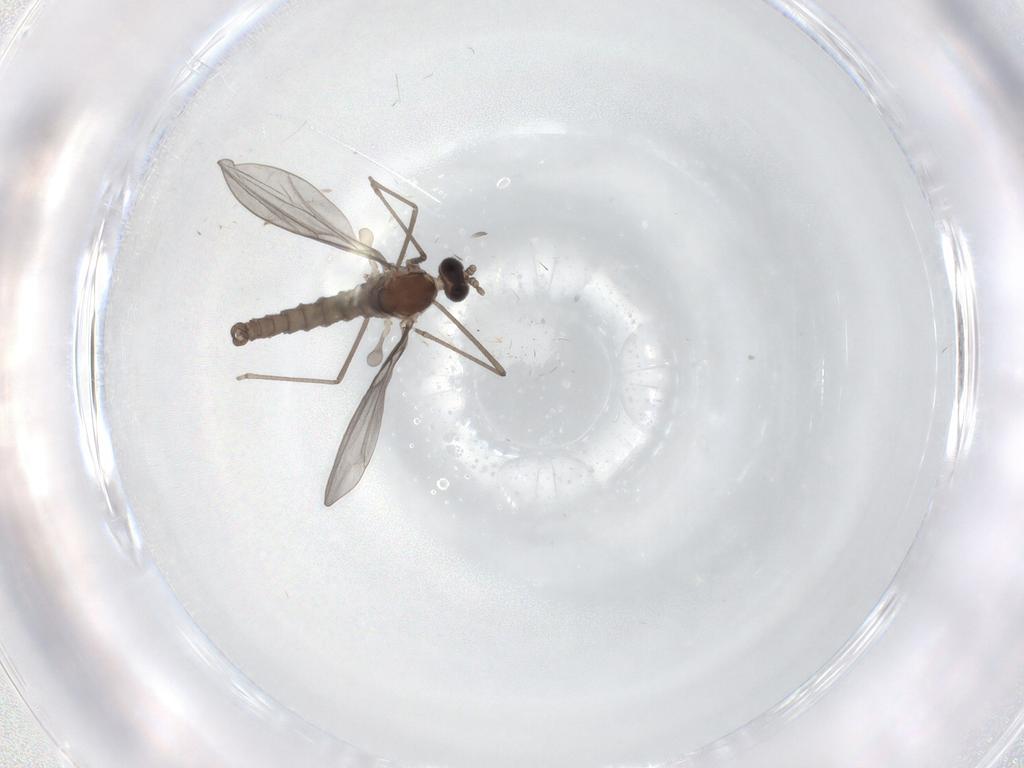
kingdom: Animalia
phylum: Arthropoda
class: Insecta
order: Diptera
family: Cecidomyiidae
